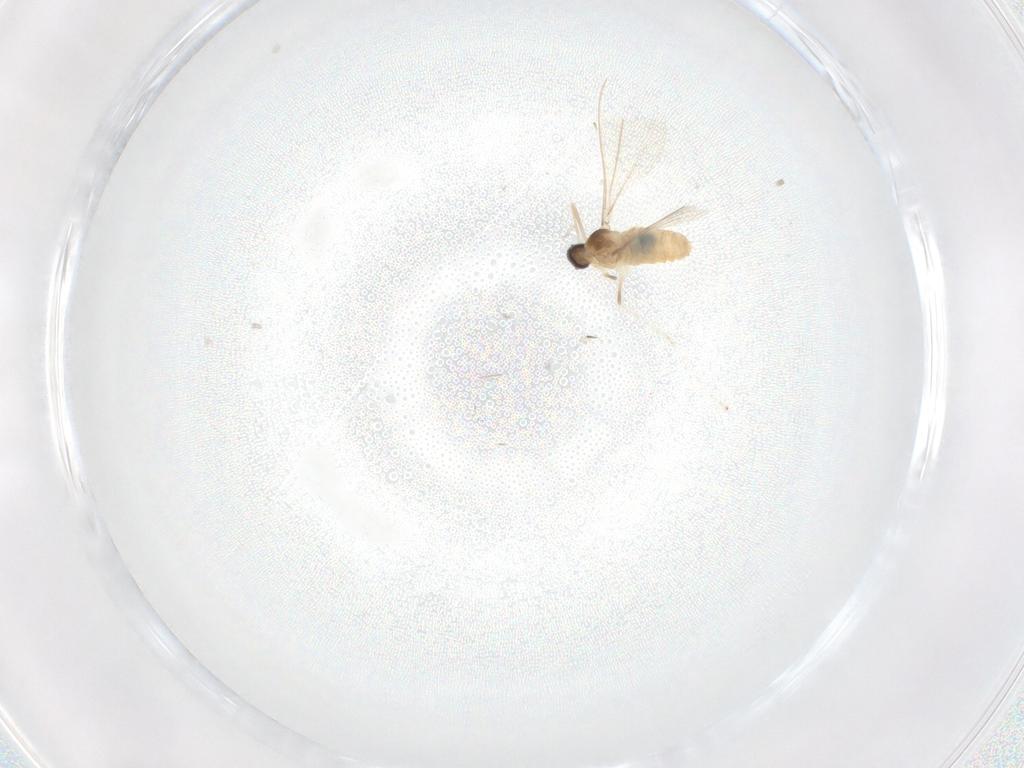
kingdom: Animalia
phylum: Arthropoda
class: Insecta
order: Diptera
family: Cecidomyiidae
